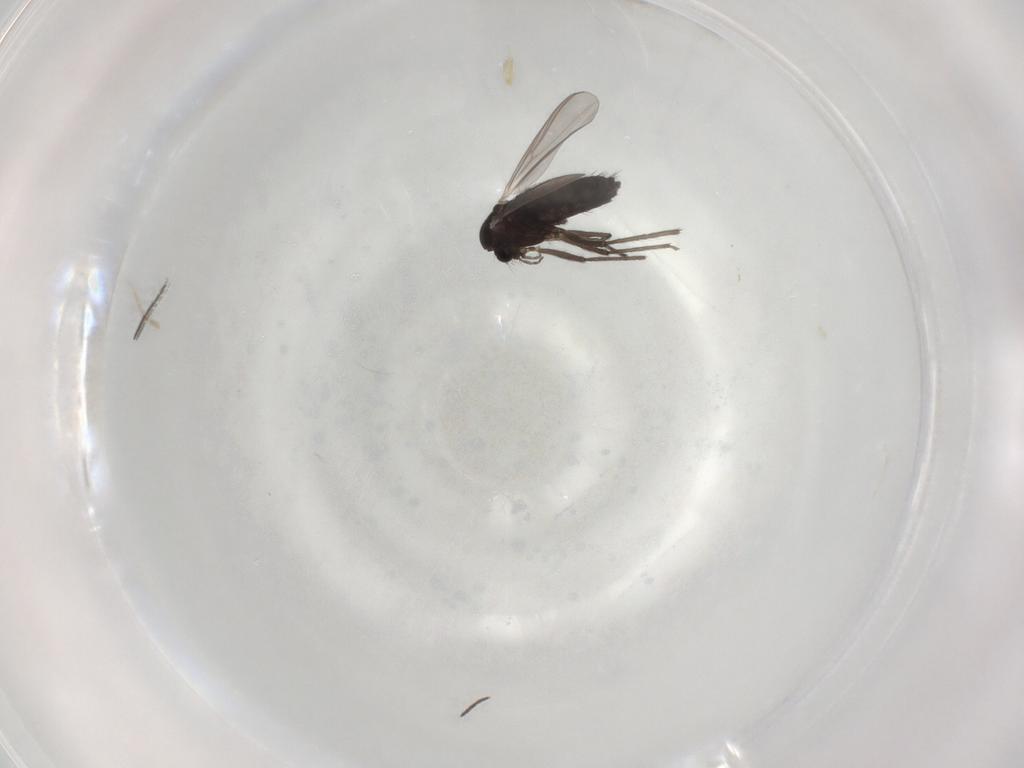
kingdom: Animalia
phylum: Arthropoda
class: Insecta
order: Diptera
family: Chironomidae
